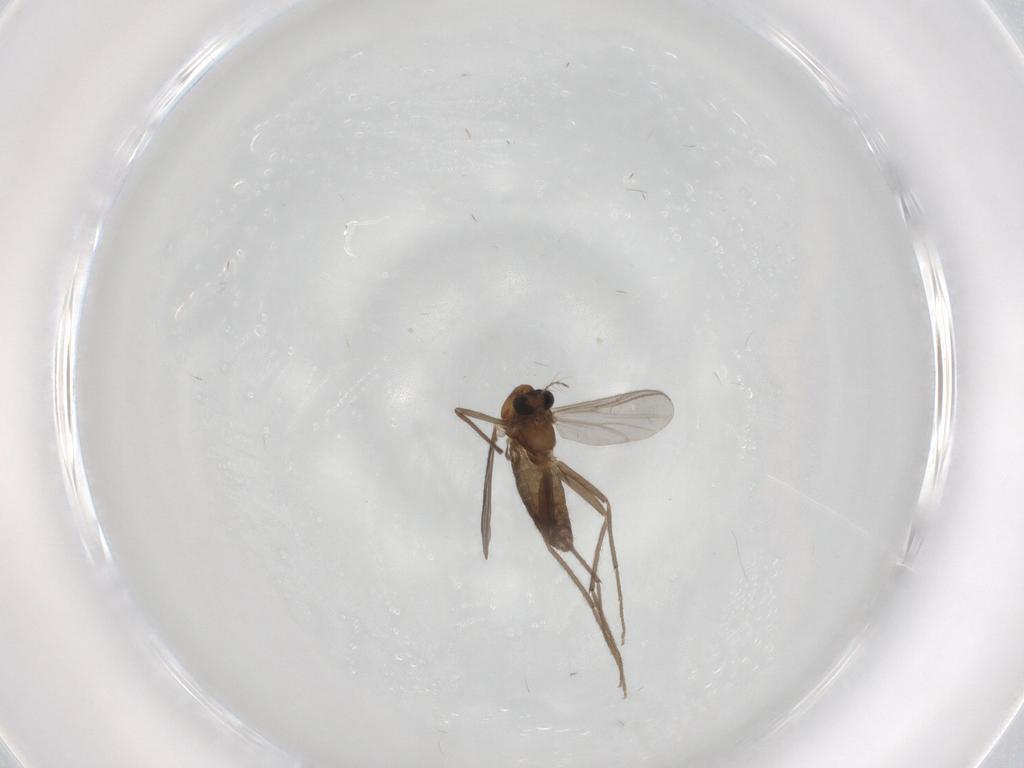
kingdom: Animalia
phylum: Arthropoda
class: Insecta
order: Diptera
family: Chironomidae
